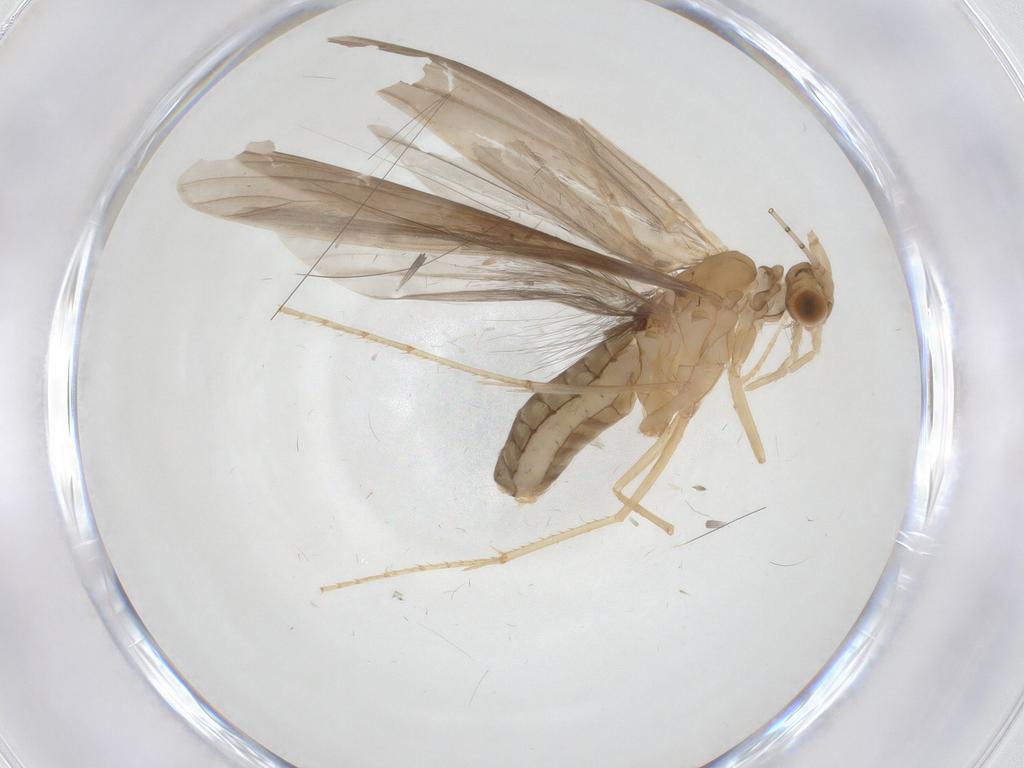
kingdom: Animalia
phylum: Arthropoda
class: Insecta
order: Trichoptera
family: Leptoceridae
